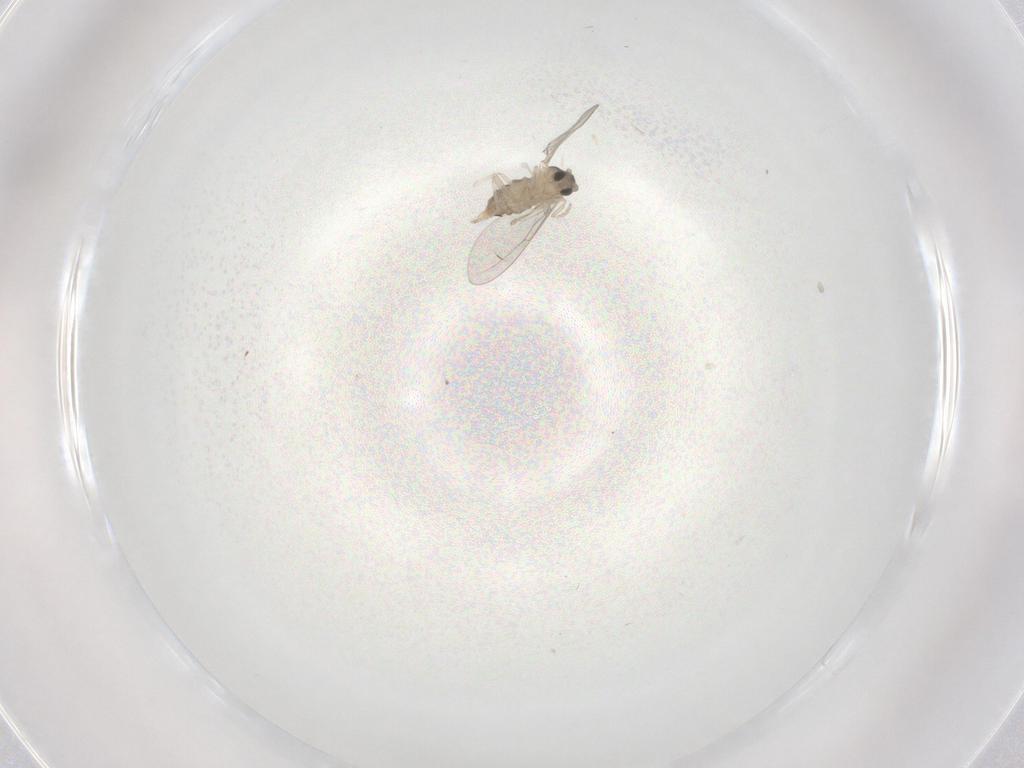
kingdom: Animalia
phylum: Arthropoda
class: Insecta
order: Diptera
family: Cecidomyiidae
